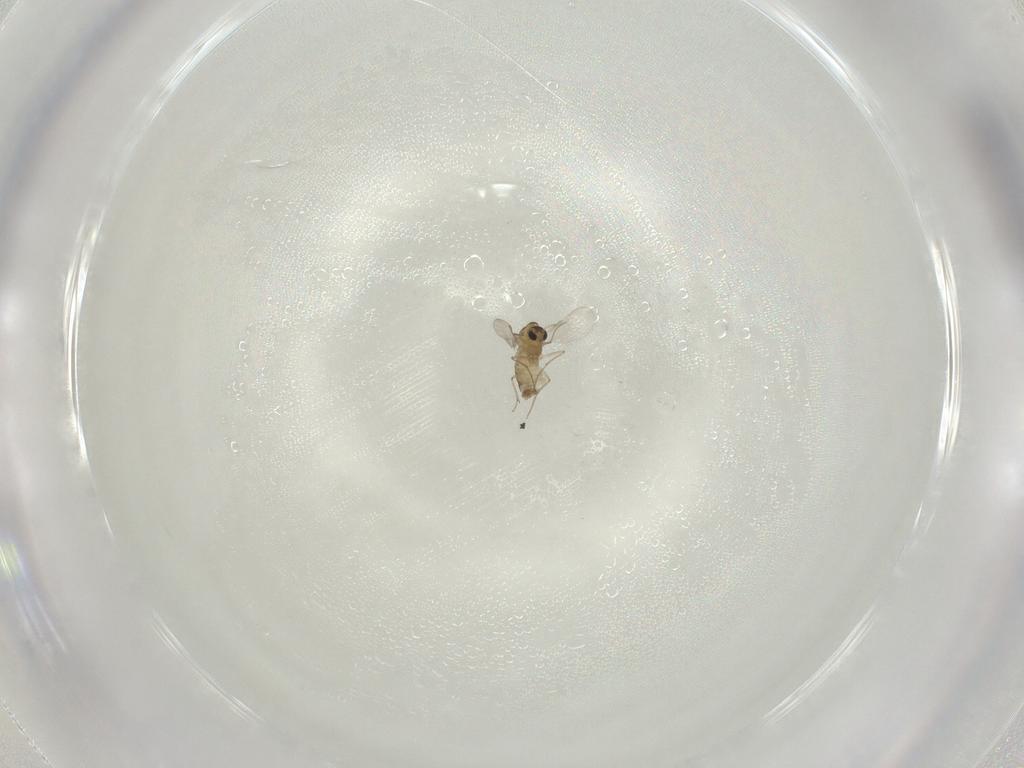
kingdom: Animalia
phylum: Arthropoda
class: Insecta
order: Diptera
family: Chironomidae
